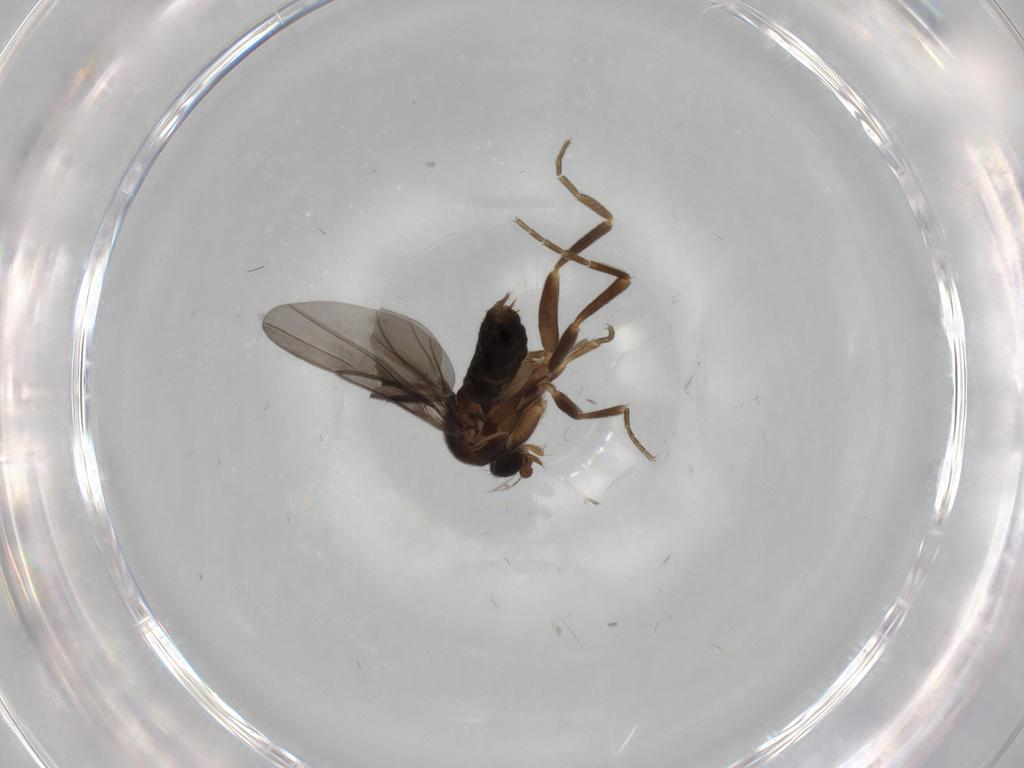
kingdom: Animalia
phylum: Arthropoda
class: Insecta
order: Diptera
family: Phoridae
